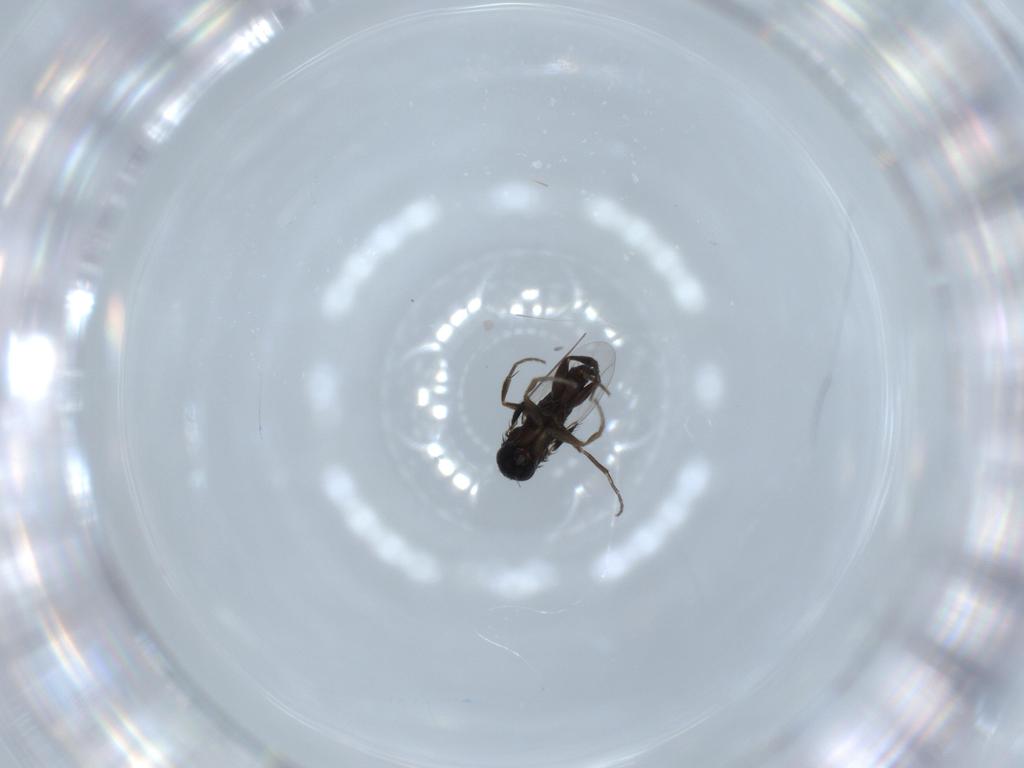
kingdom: Animalia
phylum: Arthropoda
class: Insecta
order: Diptera
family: Phoridae
